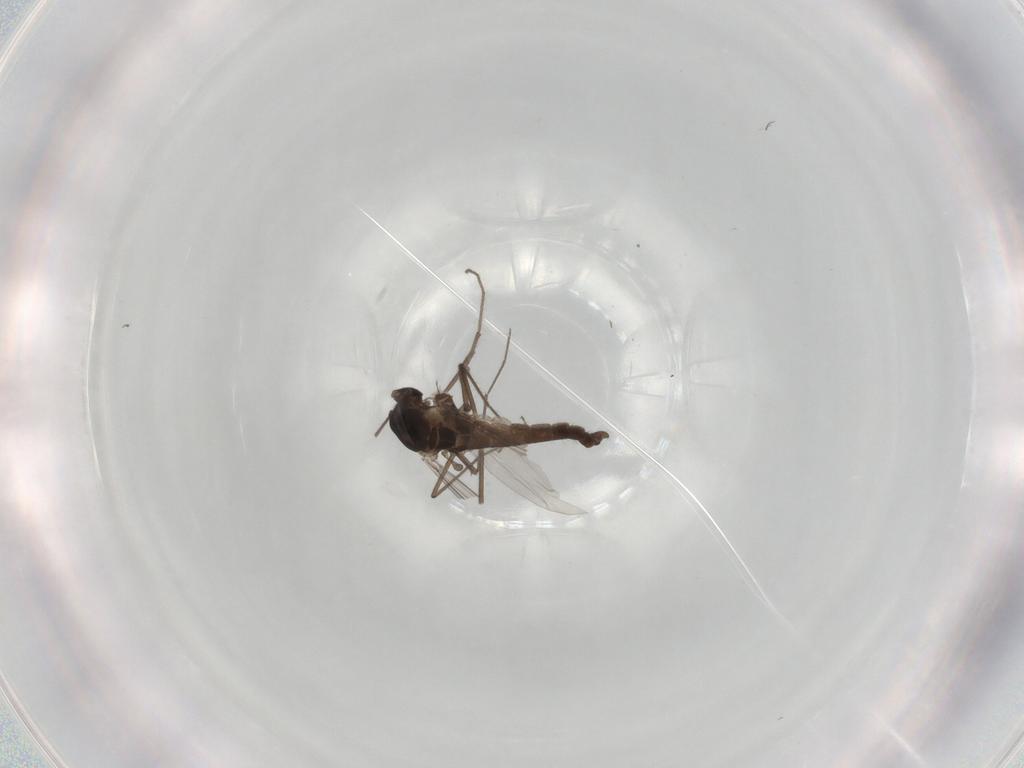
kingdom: Animalia
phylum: Arthropoda
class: Insecta
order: Diptera
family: Chironomidae
